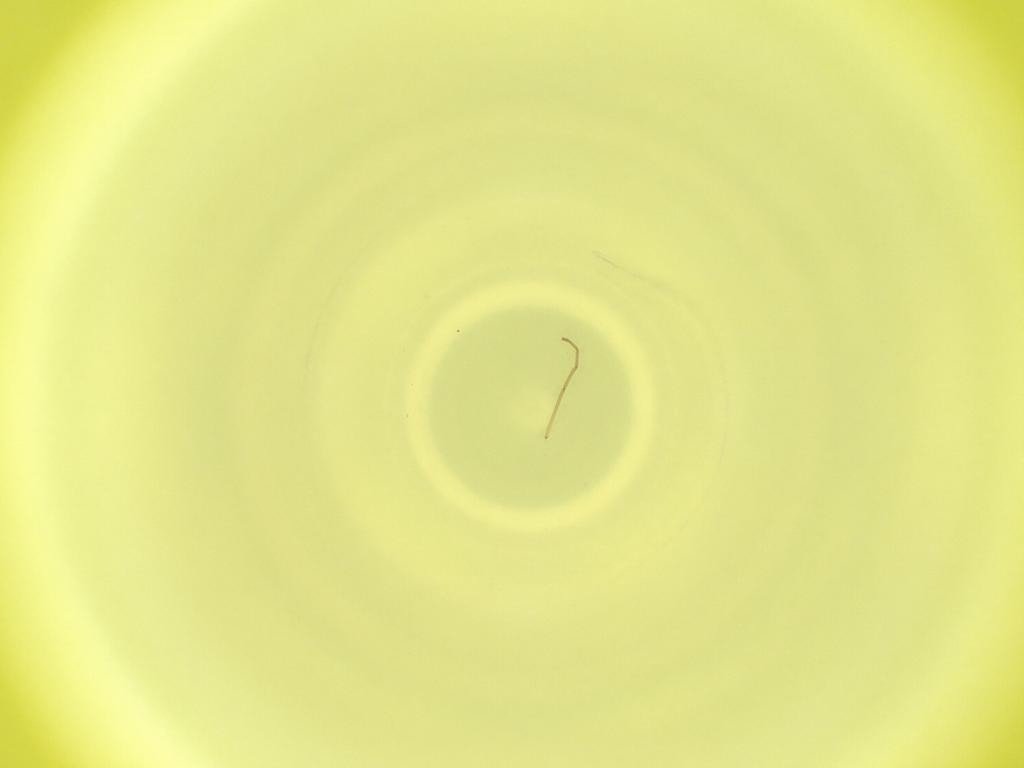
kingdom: Animalia
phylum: Arthropoda
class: Insecta
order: Diptera
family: Cecidomyiidae
